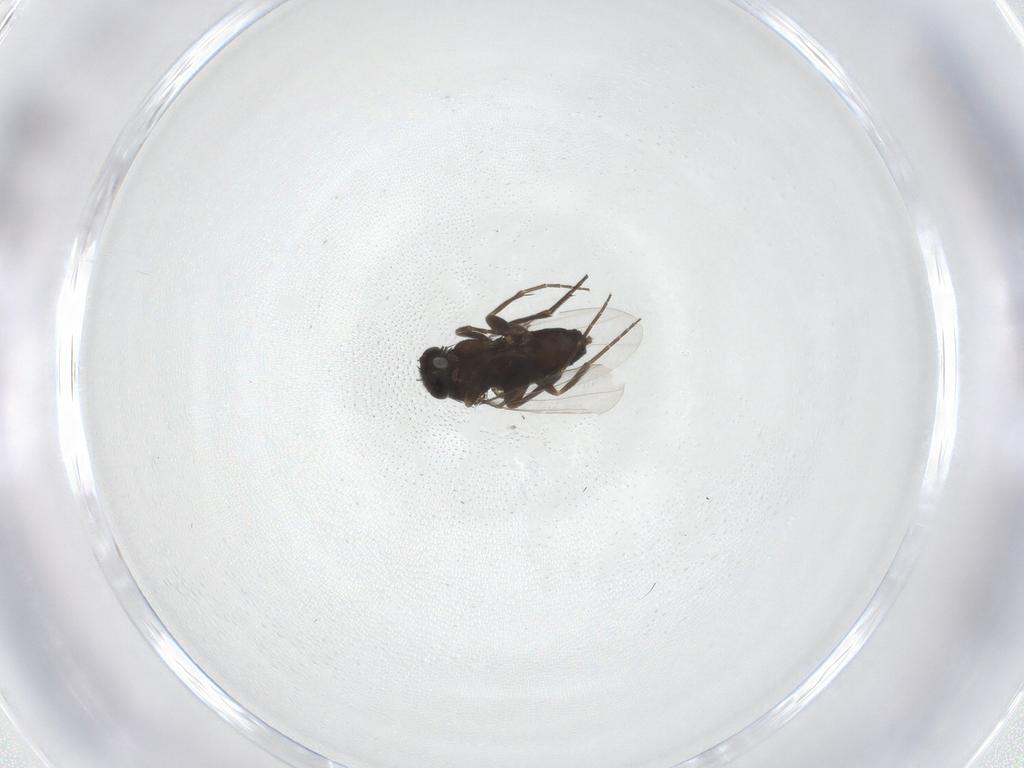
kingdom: Animalia
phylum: Arthropoda
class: Insecta
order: Diptera
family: Phoridae
